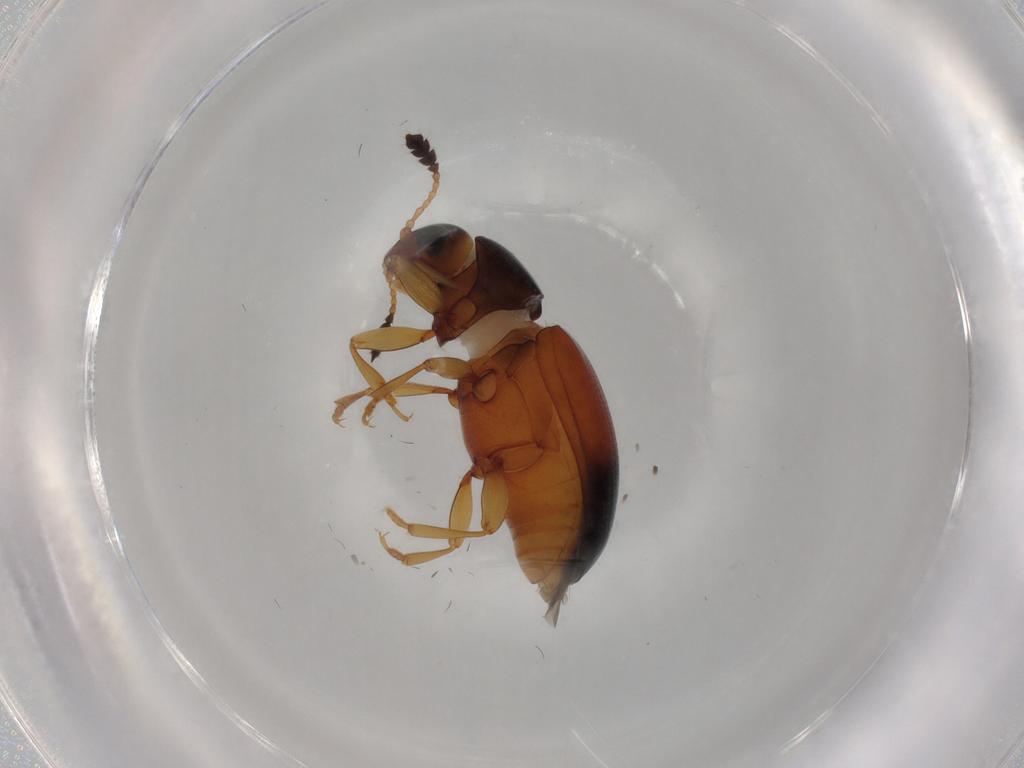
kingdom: Animalia
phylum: Arthropoda
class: Insecta
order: Coleoptera
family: Erotylidae
